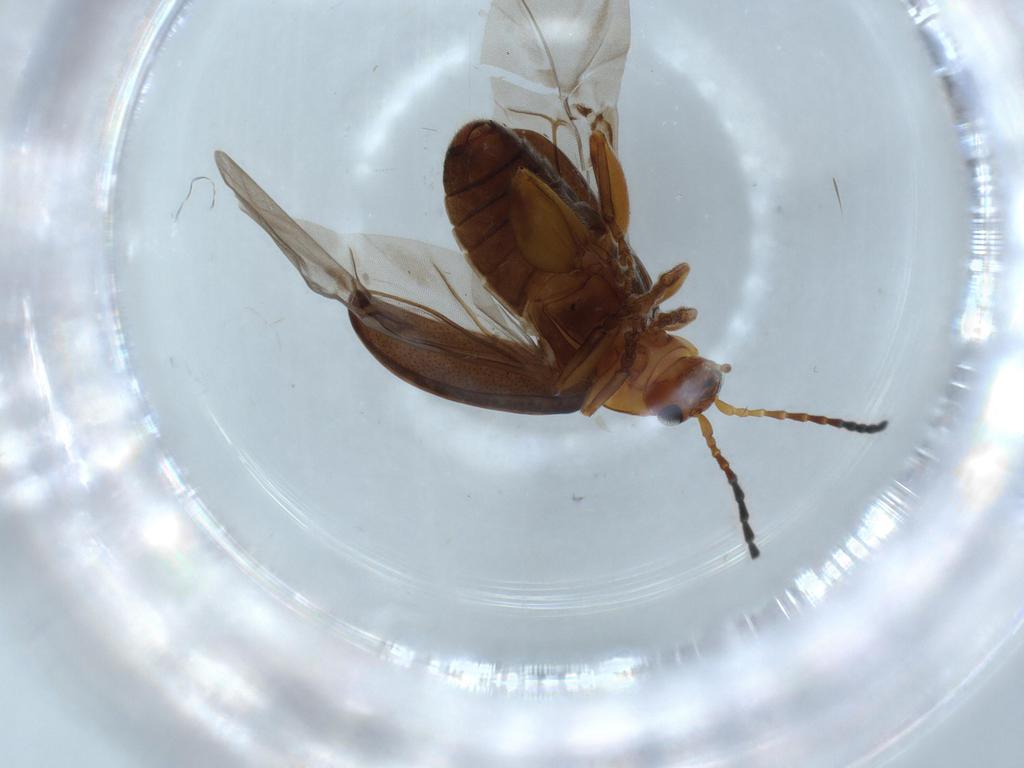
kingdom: Animalia
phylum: Arthropoda
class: Insecta
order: Coleoptera
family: Chrysomelidae
